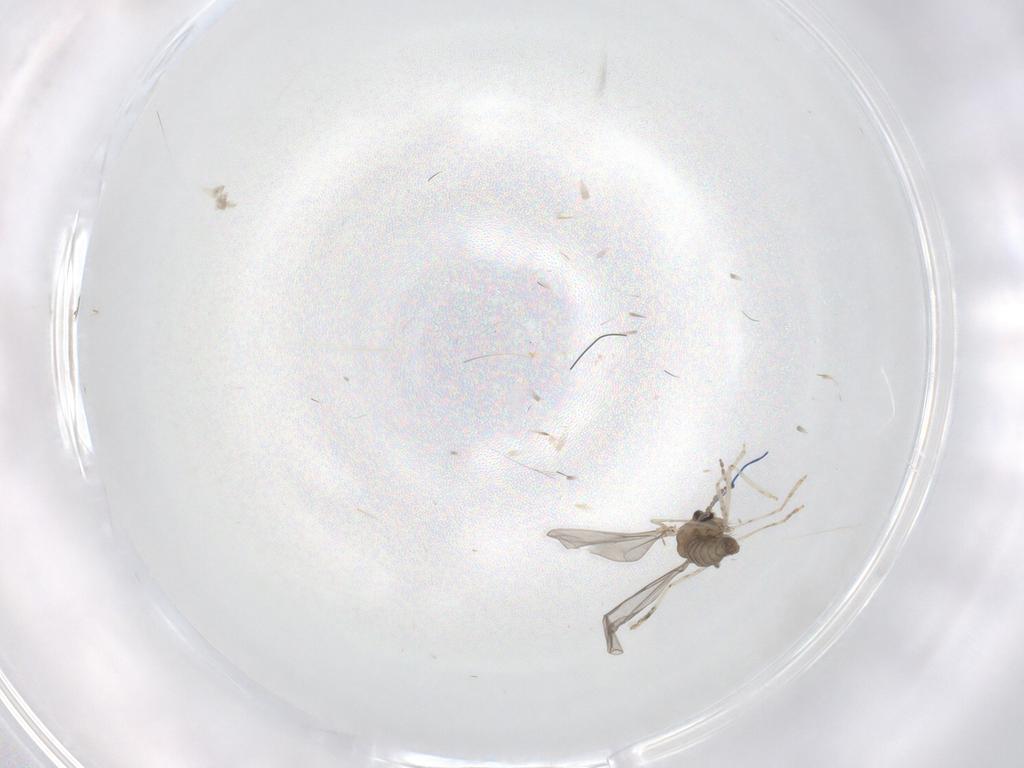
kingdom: Animalia
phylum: Arthropoda
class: Insecta
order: Diptera
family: Cecidomyiidae
